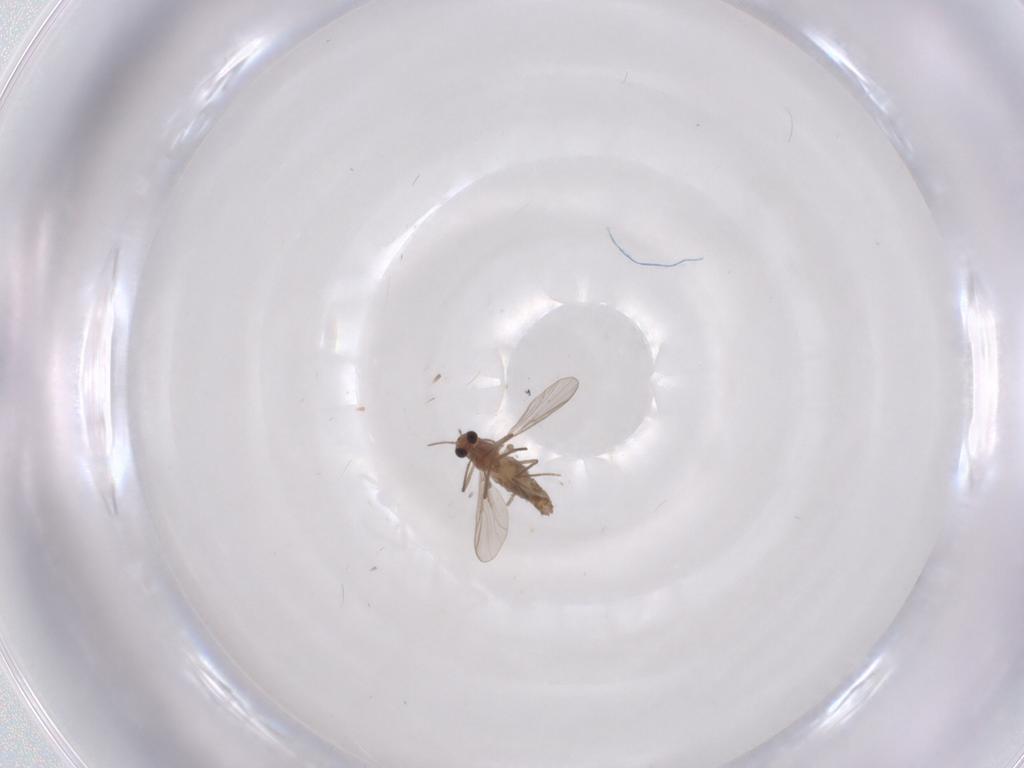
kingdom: Animalia
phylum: Arthropoda
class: Insecta
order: Diptera
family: Chironomidae
